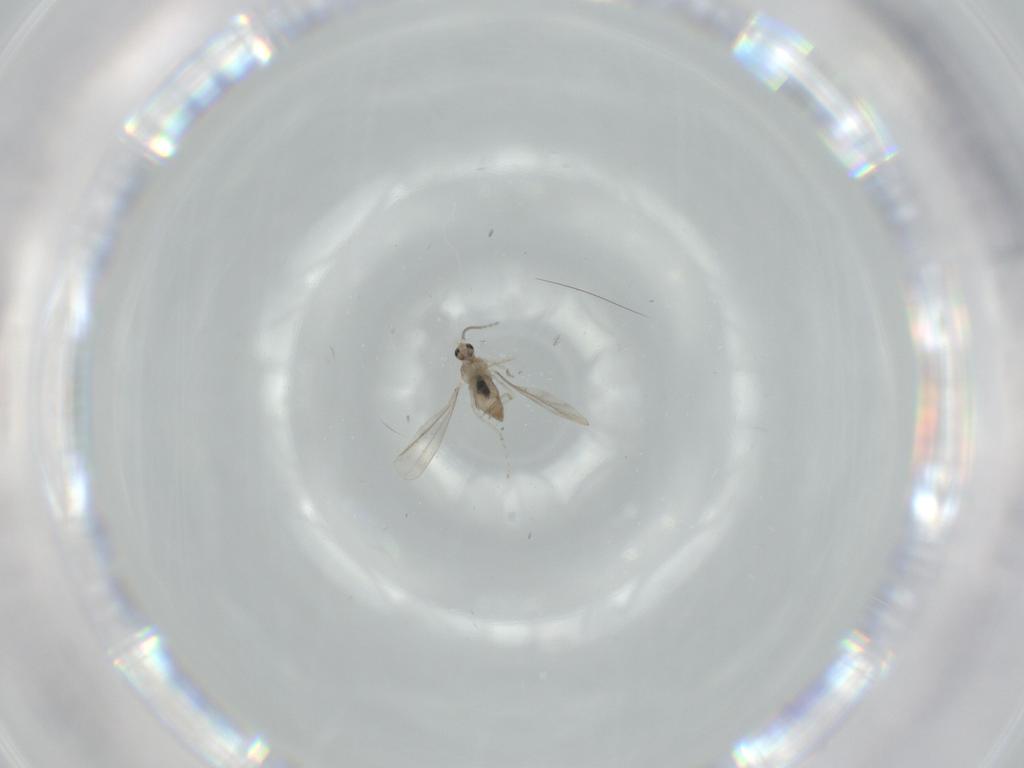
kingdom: Animalia
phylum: Arthropoda
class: Insecta
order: Diptera
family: Cecidomyiidae
